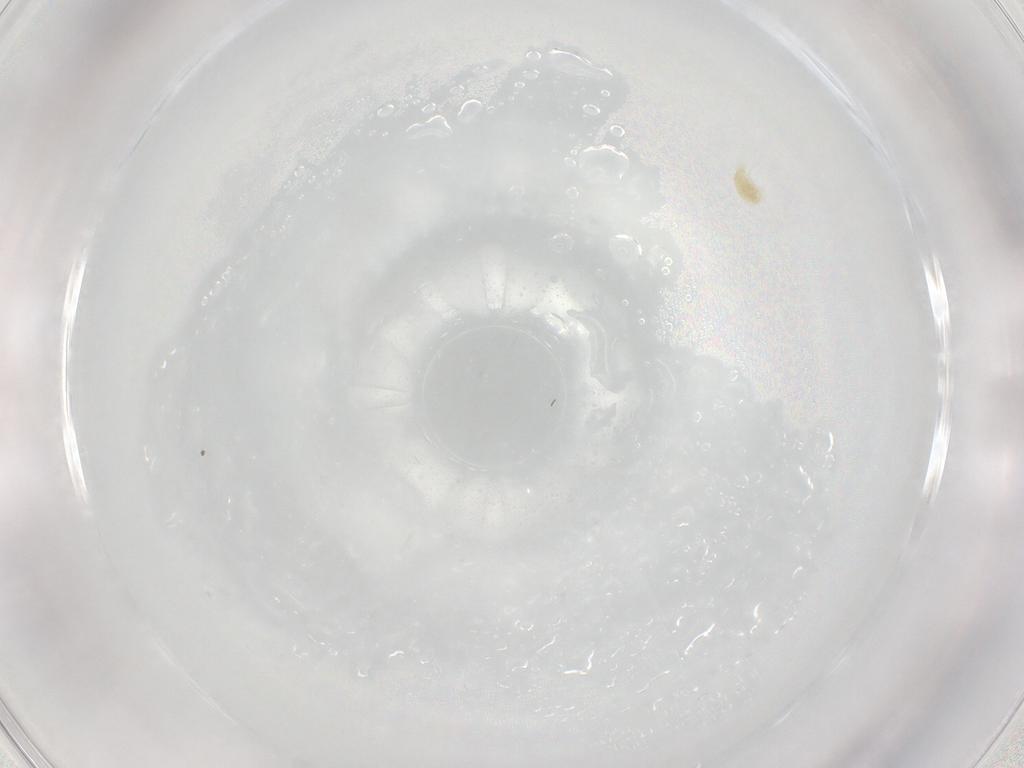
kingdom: Animalia
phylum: Arthropoda
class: Arachnida
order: Trombidiformes
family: Eupodidae
